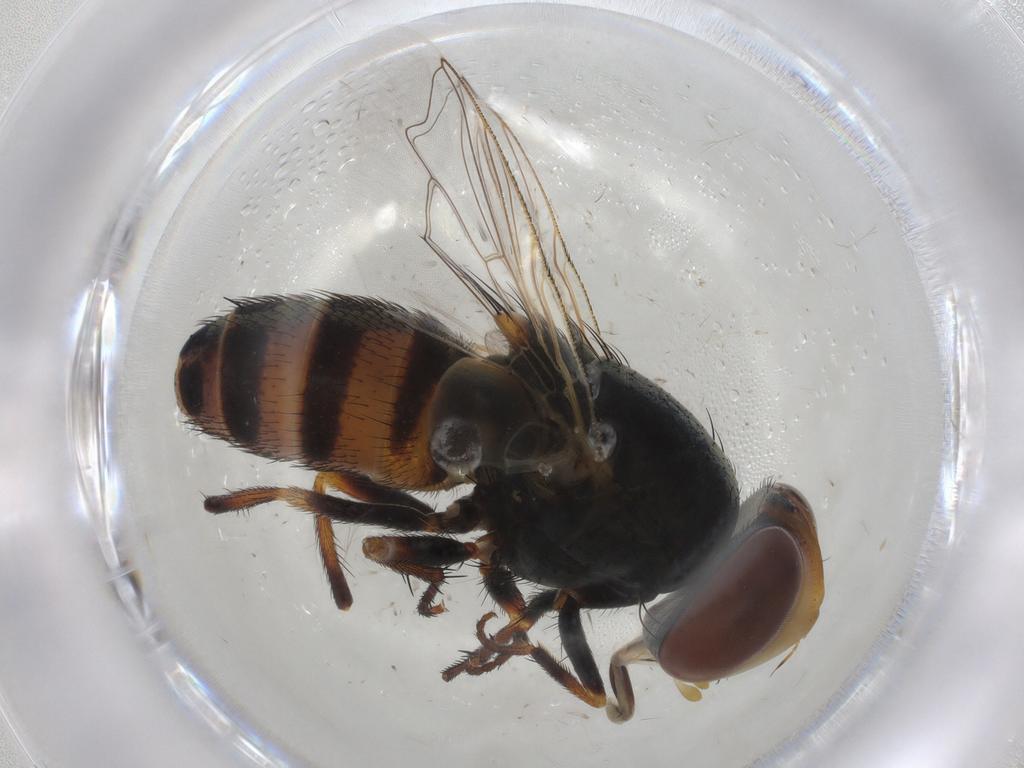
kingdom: Animalia
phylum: Arthropoda
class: Insecta
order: Diptera
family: Sarcophagidae
